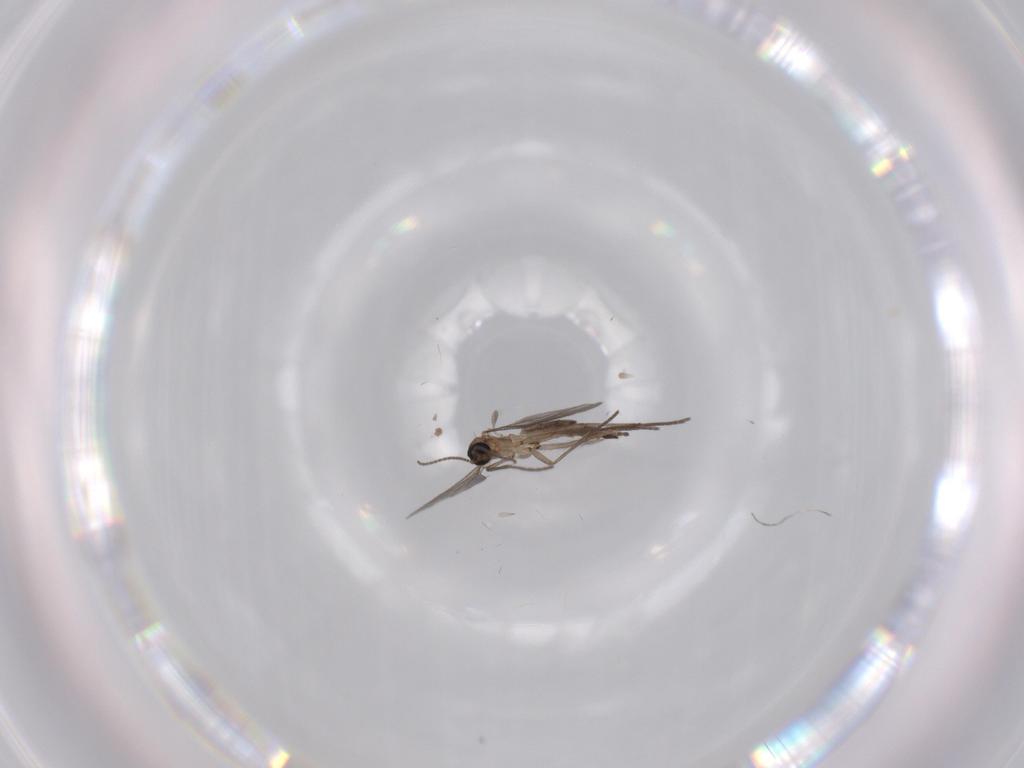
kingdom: Animalia
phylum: Arthropoda
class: Insecta
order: Diptera
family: Sciaridae
